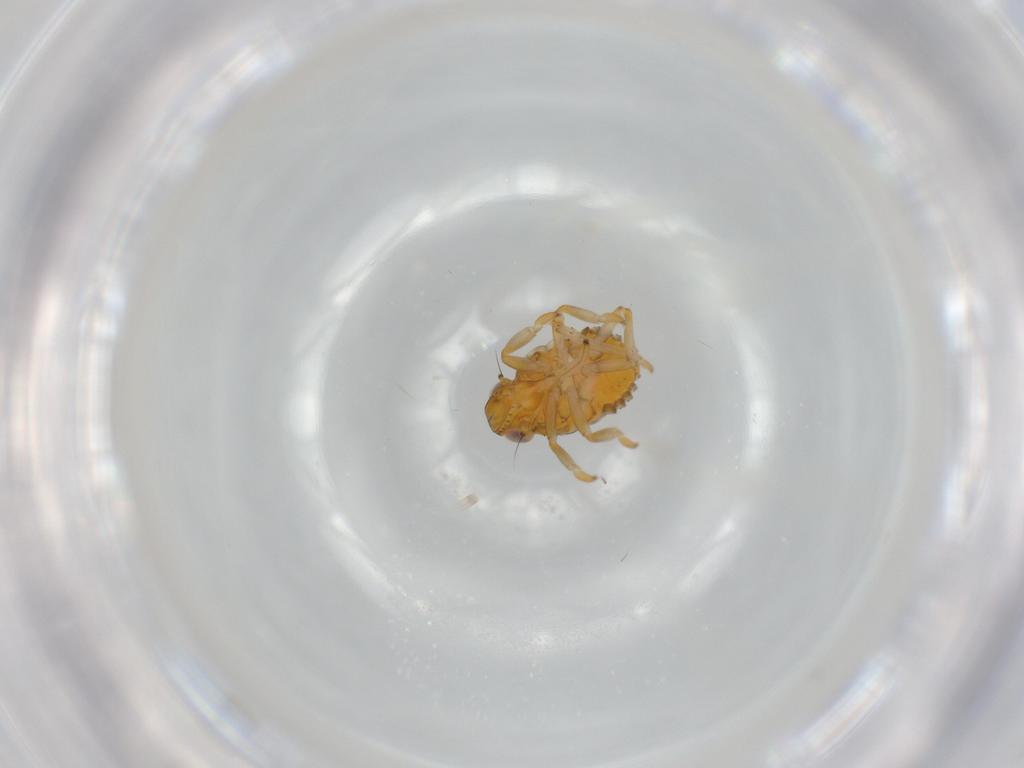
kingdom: Animalia
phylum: Arthropoda
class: Insecta
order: Hemiptera
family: Issidae
